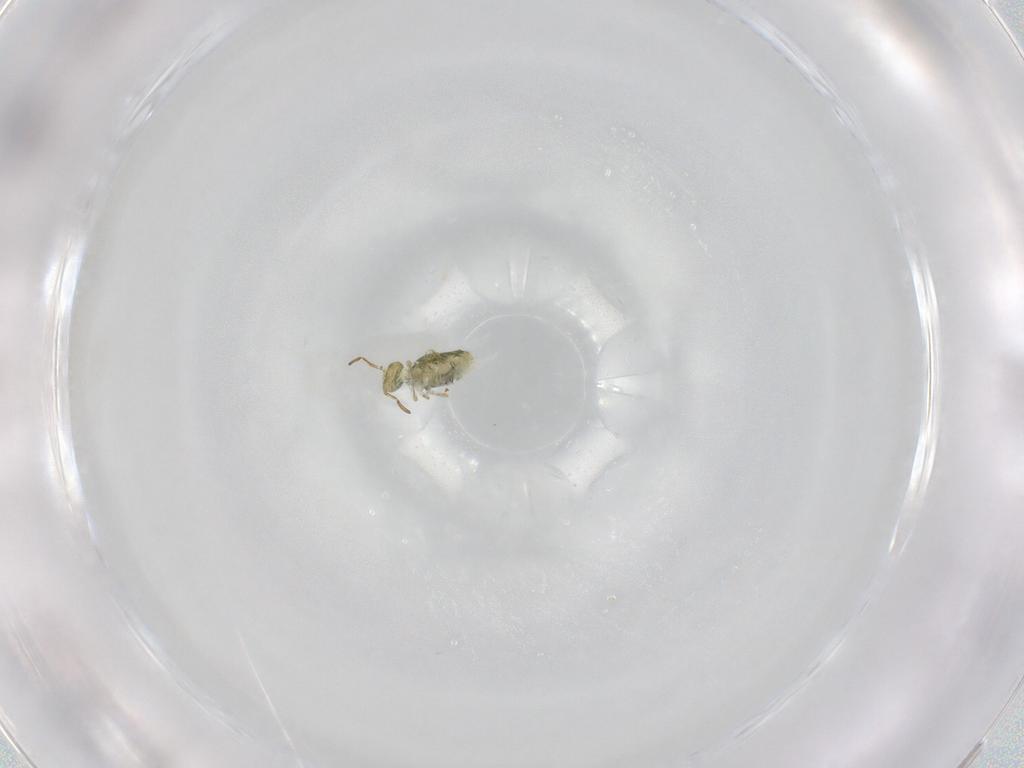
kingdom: Animalia
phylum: Arthropoda
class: Collembola
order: Symphypleona
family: Katiannidae
